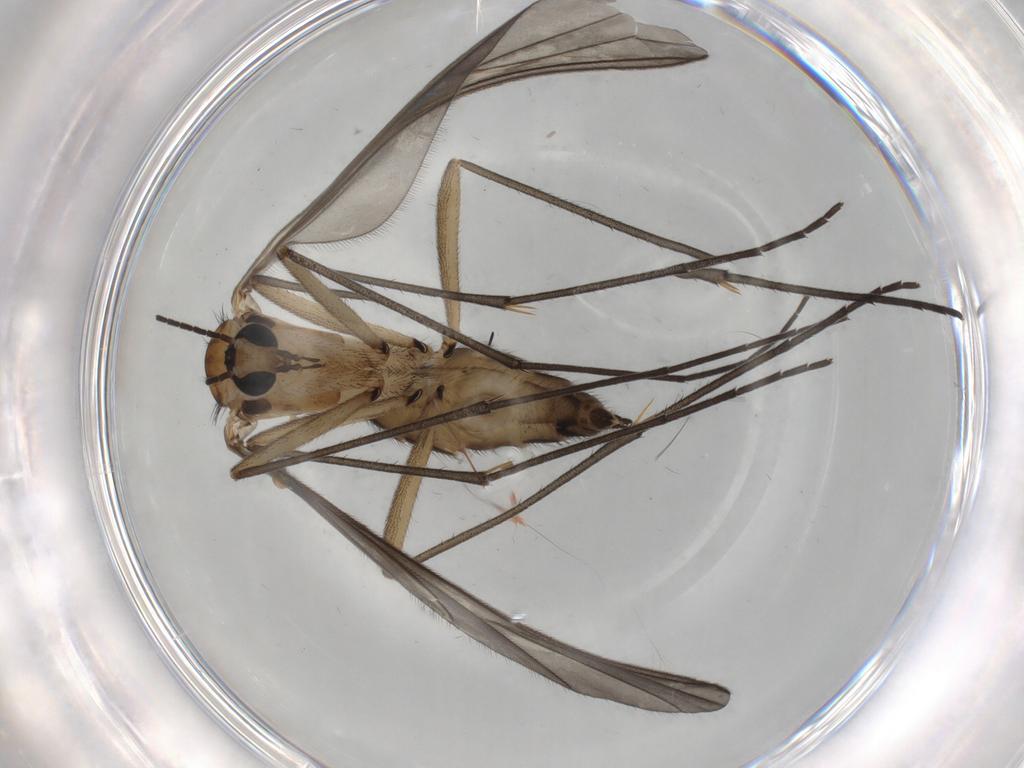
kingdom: Animalia
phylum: Arthropoda
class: Insecta
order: Diptera
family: Sciaridae
